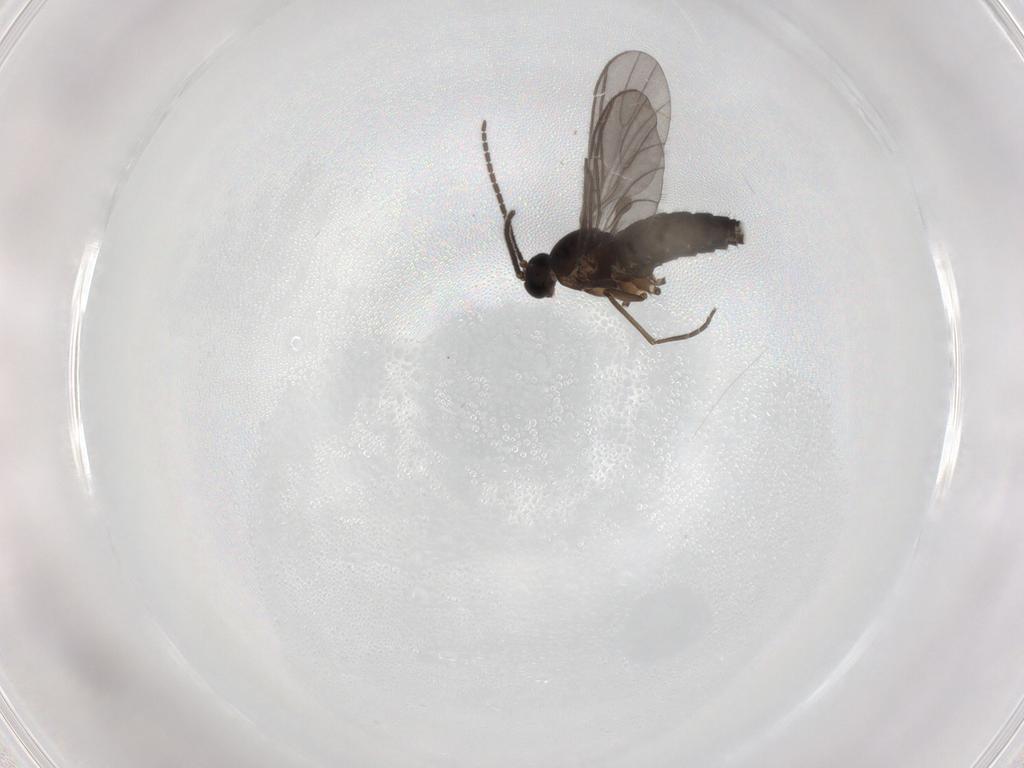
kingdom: Animalia
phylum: Arthropoda
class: Insecta
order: Diptera
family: Sciaridae
